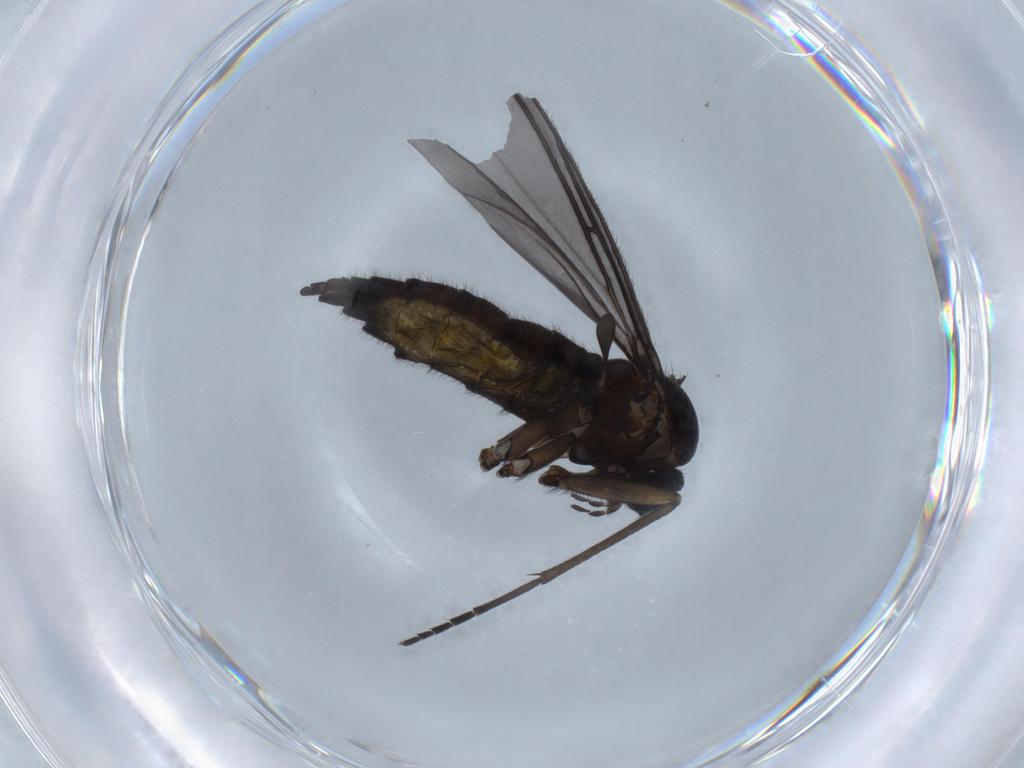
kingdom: Animalia
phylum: Arthropoda
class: Insecta
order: Diptera
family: Sciaridae
